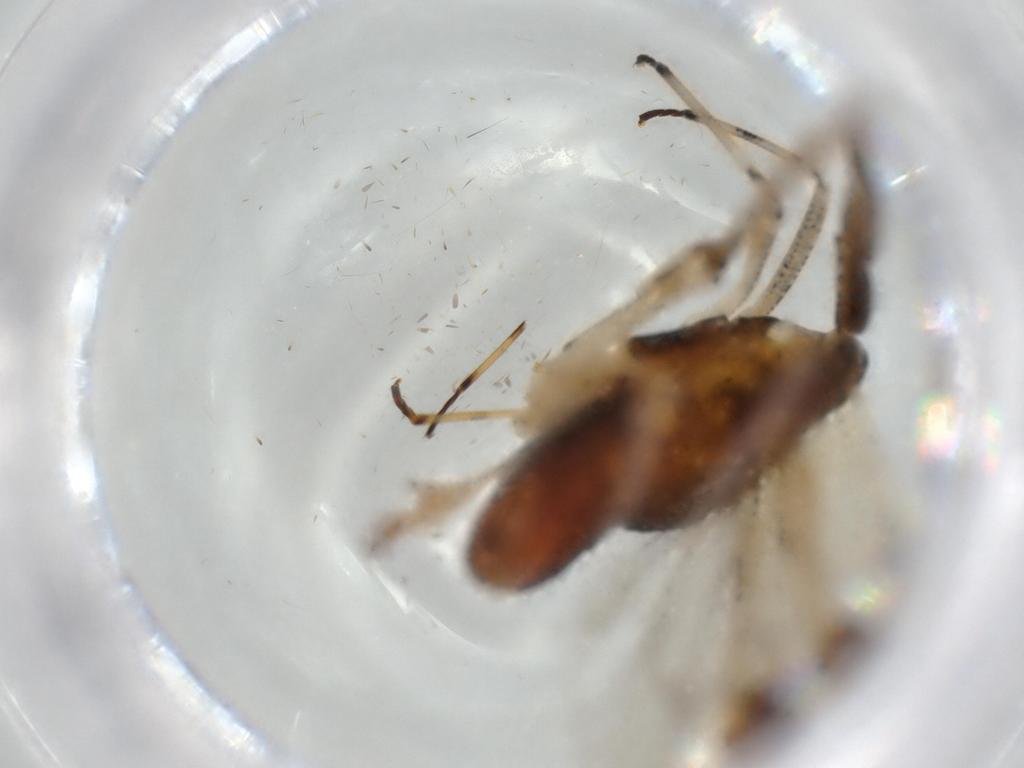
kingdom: Animalia
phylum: Arthropoda
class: Insecta
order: Hemiptera
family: Delphacidae
